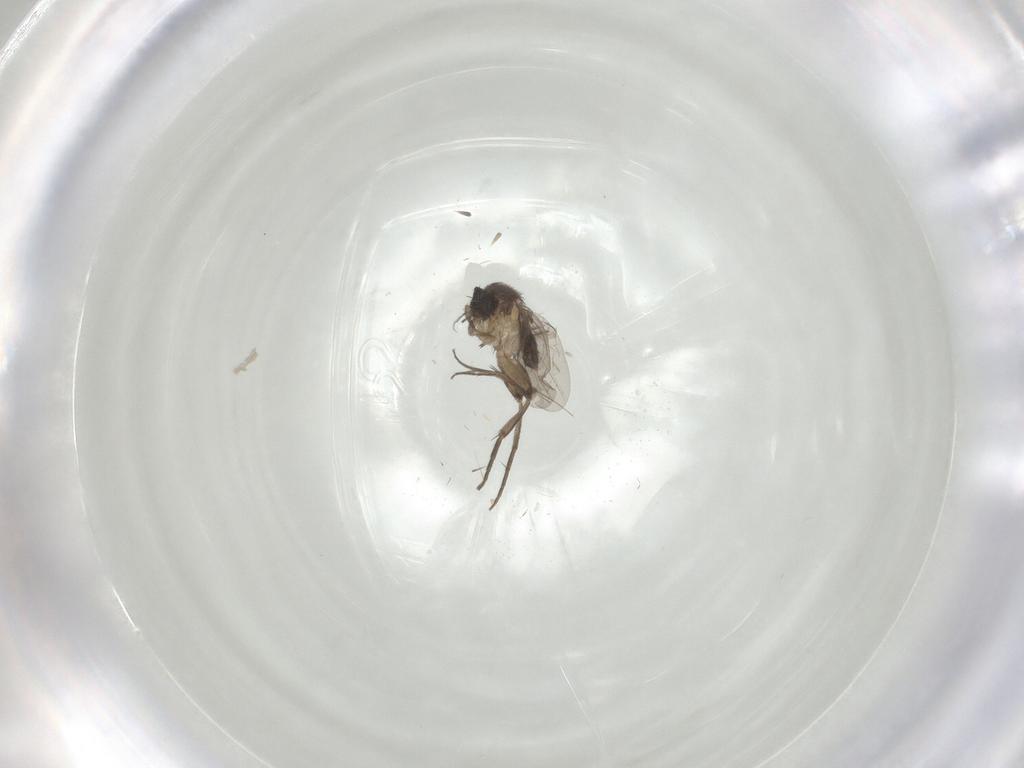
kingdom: Animalia
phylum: Arthropoda
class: Insecta
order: Diptera
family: Phoridae
